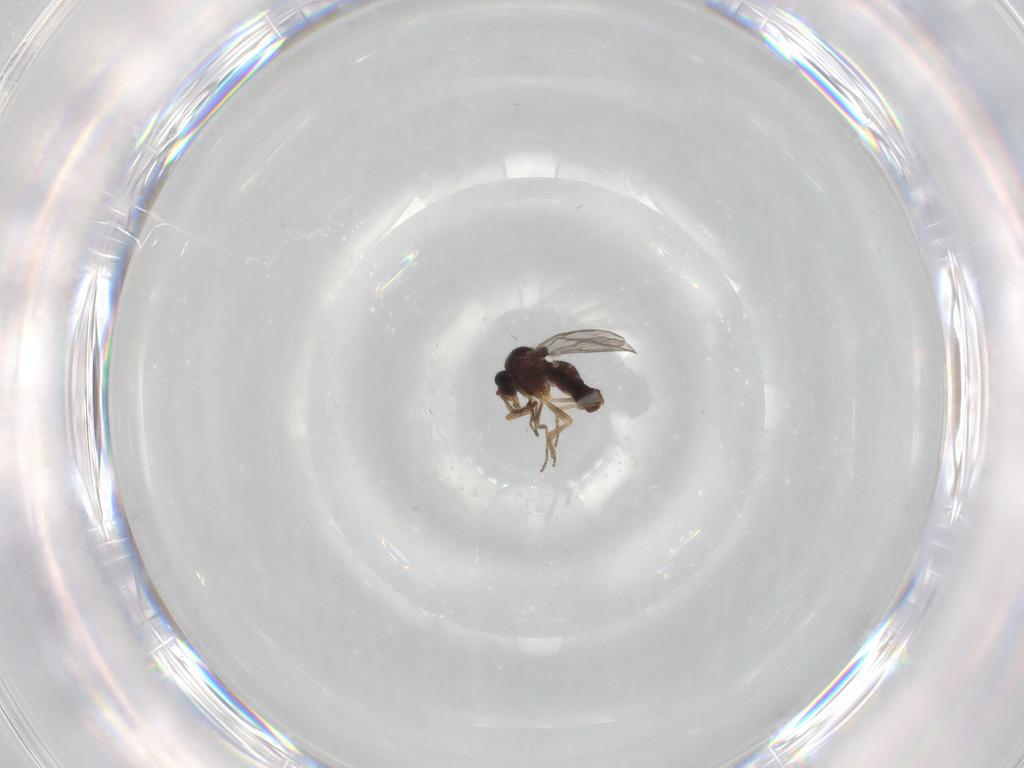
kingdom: Animalia
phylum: Arthropoda
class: Insecta
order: Diptera
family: Ceratopogonidae
